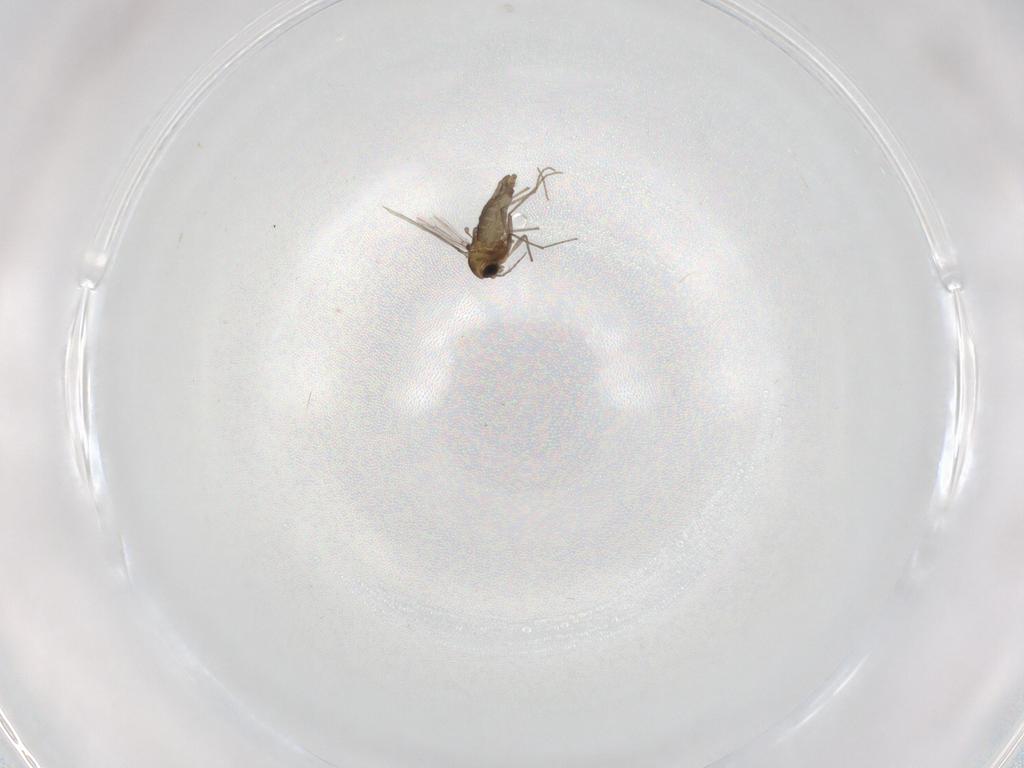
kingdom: Animalia
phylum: Arthropoda
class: Insecta
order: Diptera
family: Chironomidae
